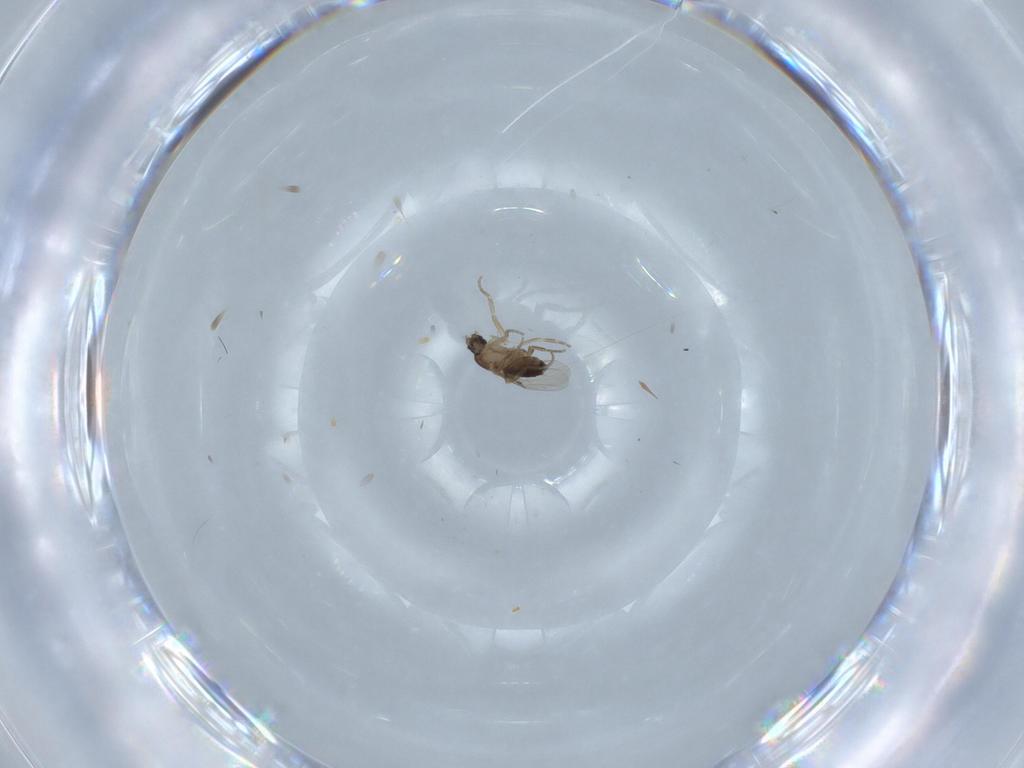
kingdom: Animalia
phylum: Arthropoda
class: Insecta
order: Diptera
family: Phoridae
